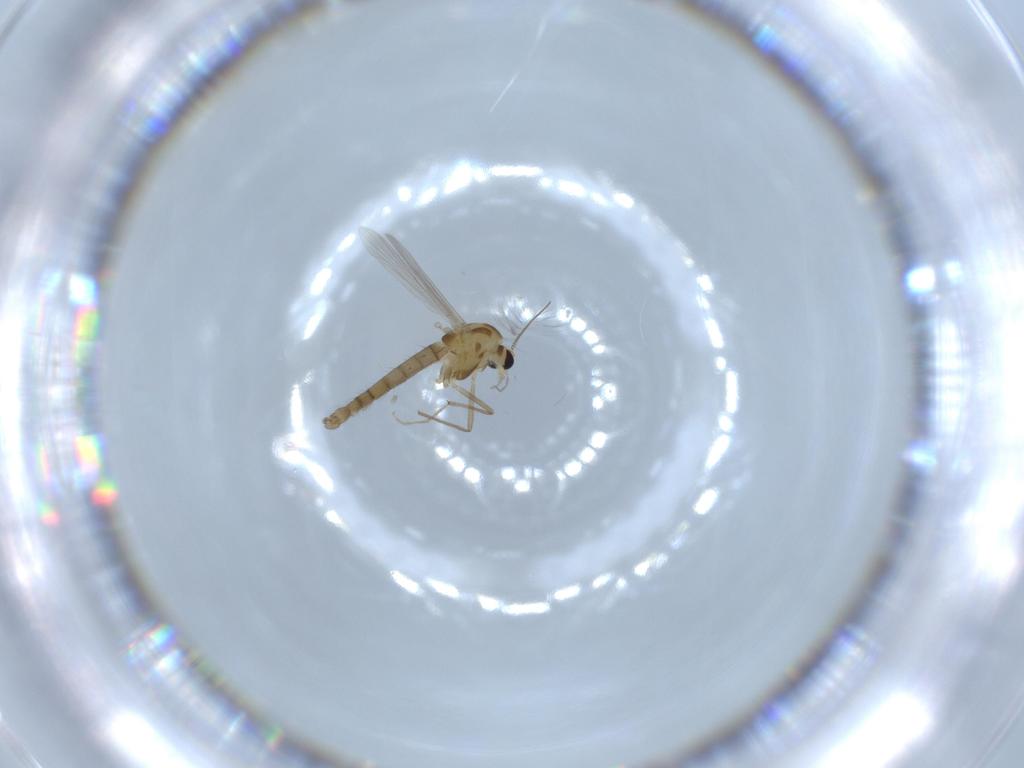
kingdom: Animalia
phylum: Arthropoda
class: Insecta
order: Diptera
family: Chironomidae
